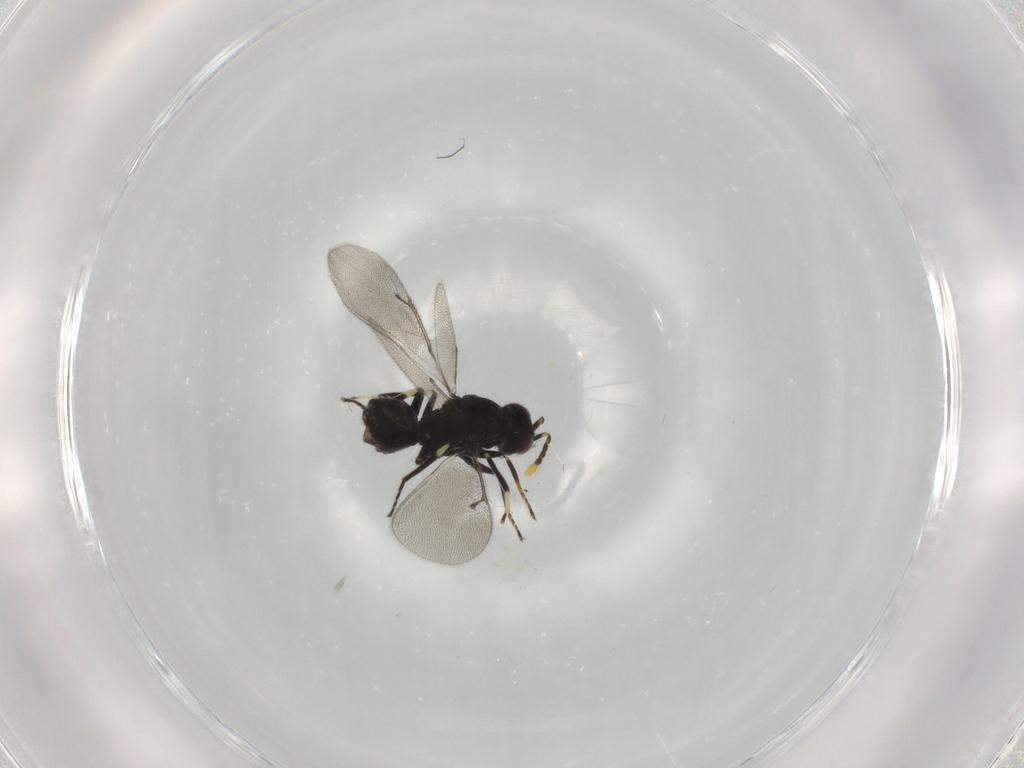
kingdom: Animalia
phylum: Arthropoda
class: Insecta
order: Hymenoptera
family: Eulophidae
